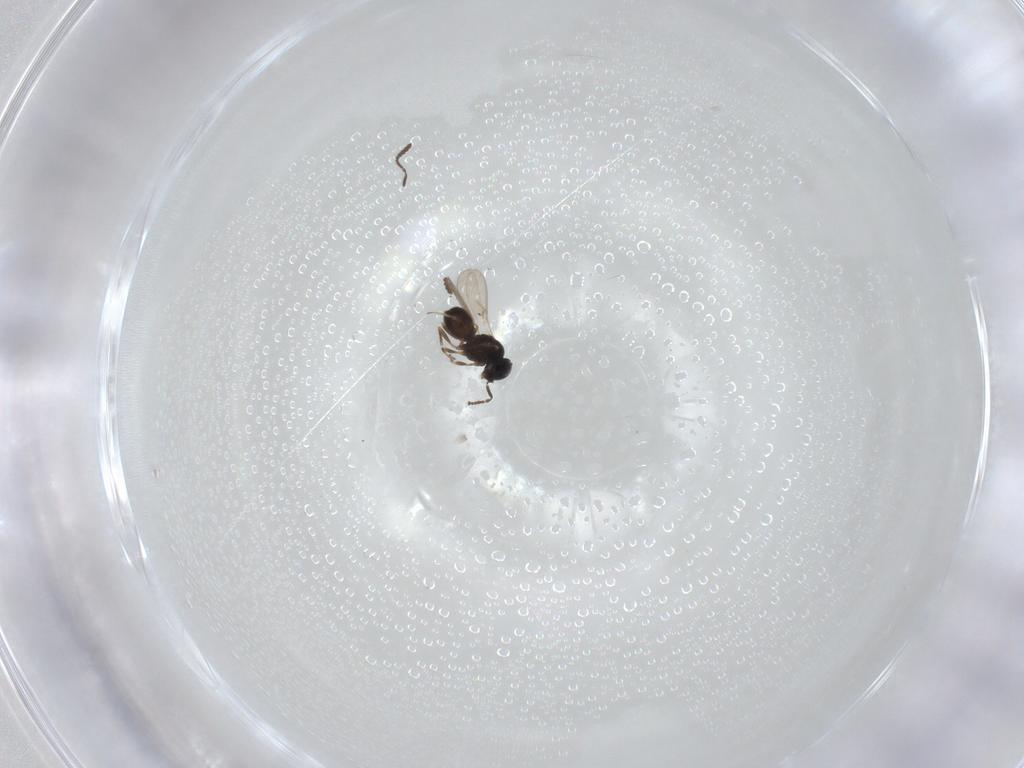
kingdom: Animalia
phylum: Arthropoda
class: Insecta
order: Hymenoptera
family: Scelionidae
